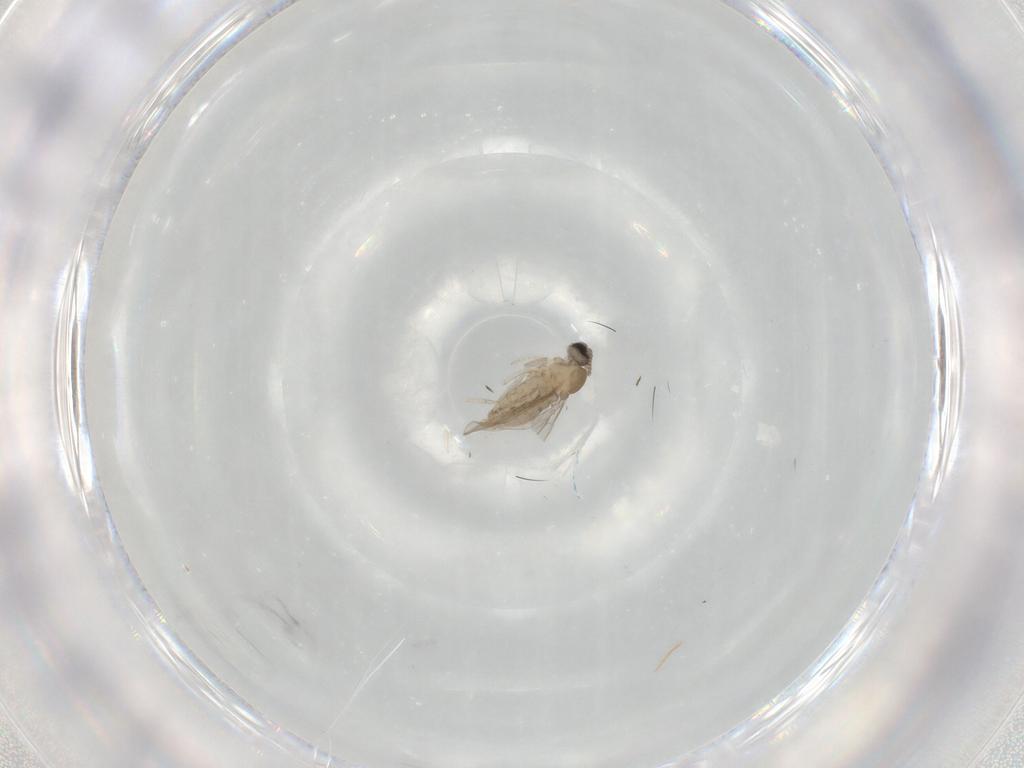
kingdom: Animalia
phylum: Arthropoda
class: Insecta
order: Diptera
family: Cecidomyiidae
